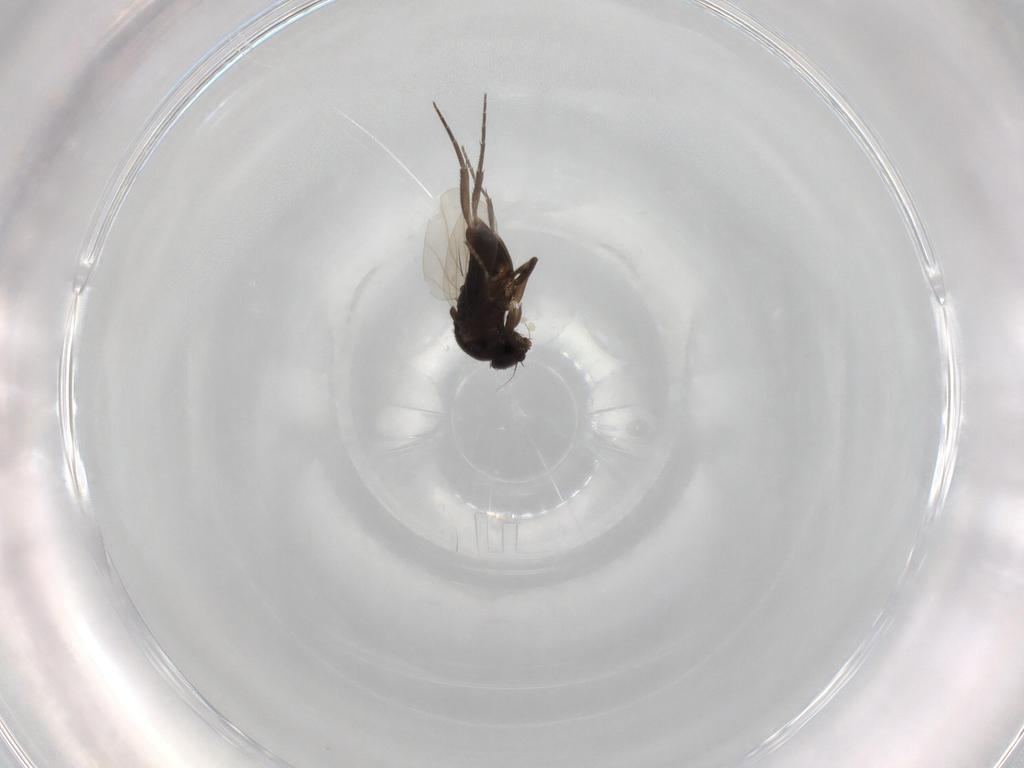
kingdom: Animalia
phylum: Arthropoda
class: Insecta
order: Diptera
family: Phoridae
